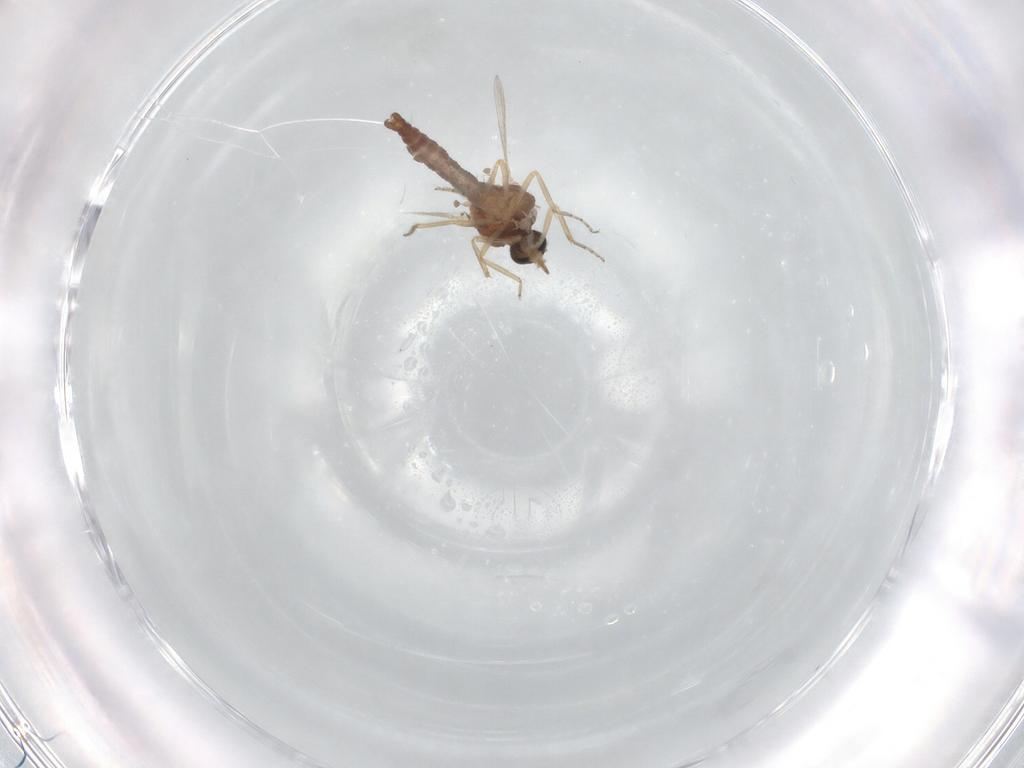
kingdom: Animalia
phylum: Arthropoda
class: Insecta
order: Diptera
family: Ceratopogonidae
